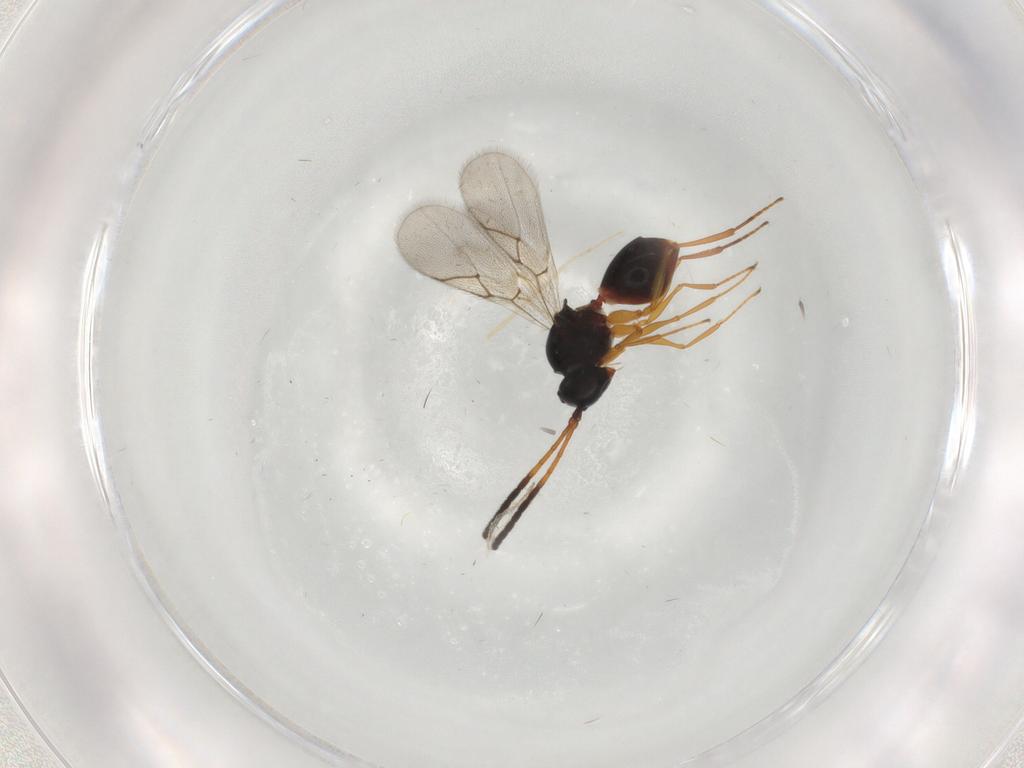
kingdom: Animalia
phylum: Arthropoda
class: Insecta
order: Hymenoptera
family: Figitidae
